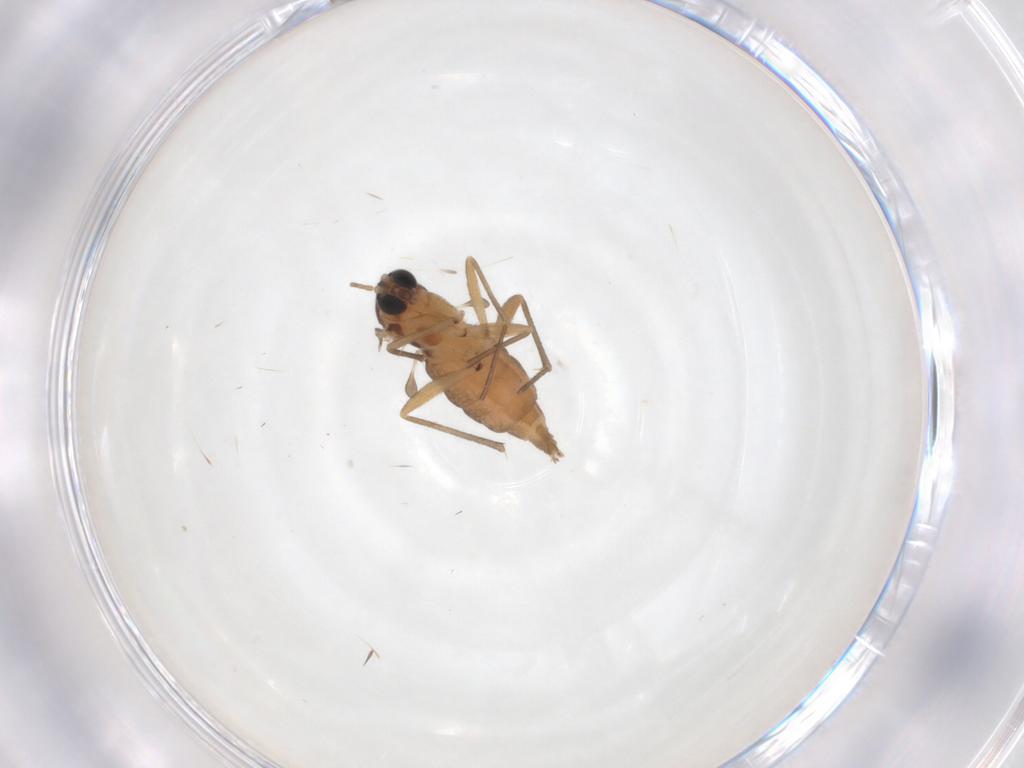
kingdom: Animalia
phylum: Arthropoda
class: Insecta
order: Diptera
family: Sciaridae
